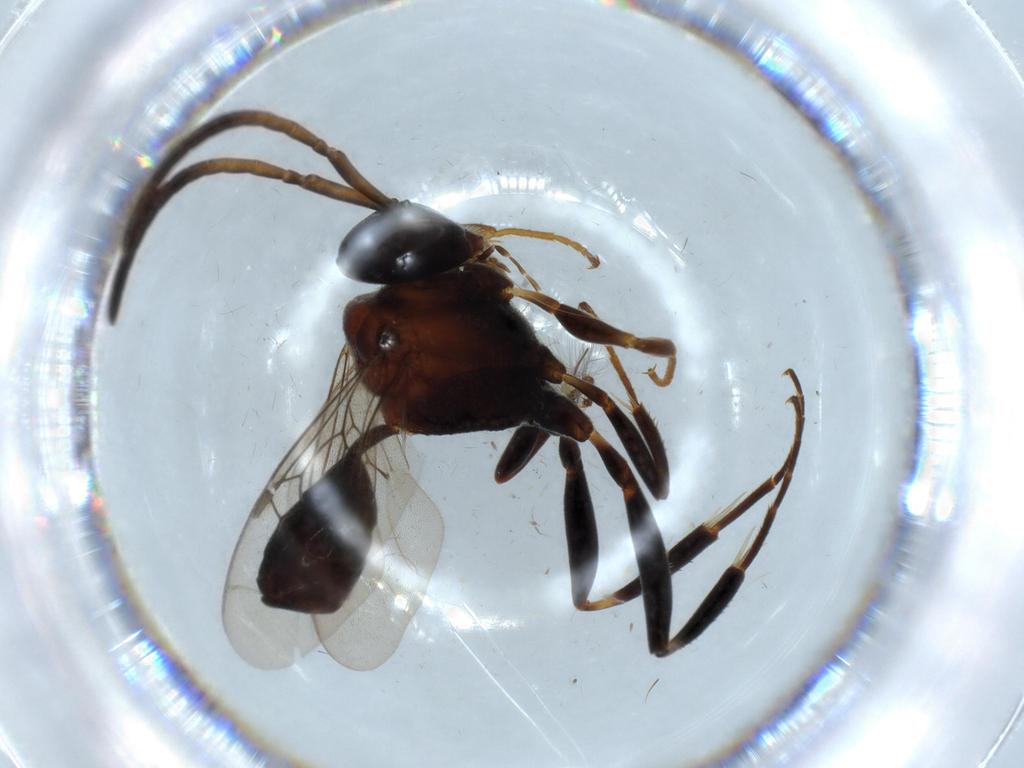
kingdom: Animalia
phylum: Arthropoda
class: Insecta
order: Hymenoptera
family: Evaniidae
